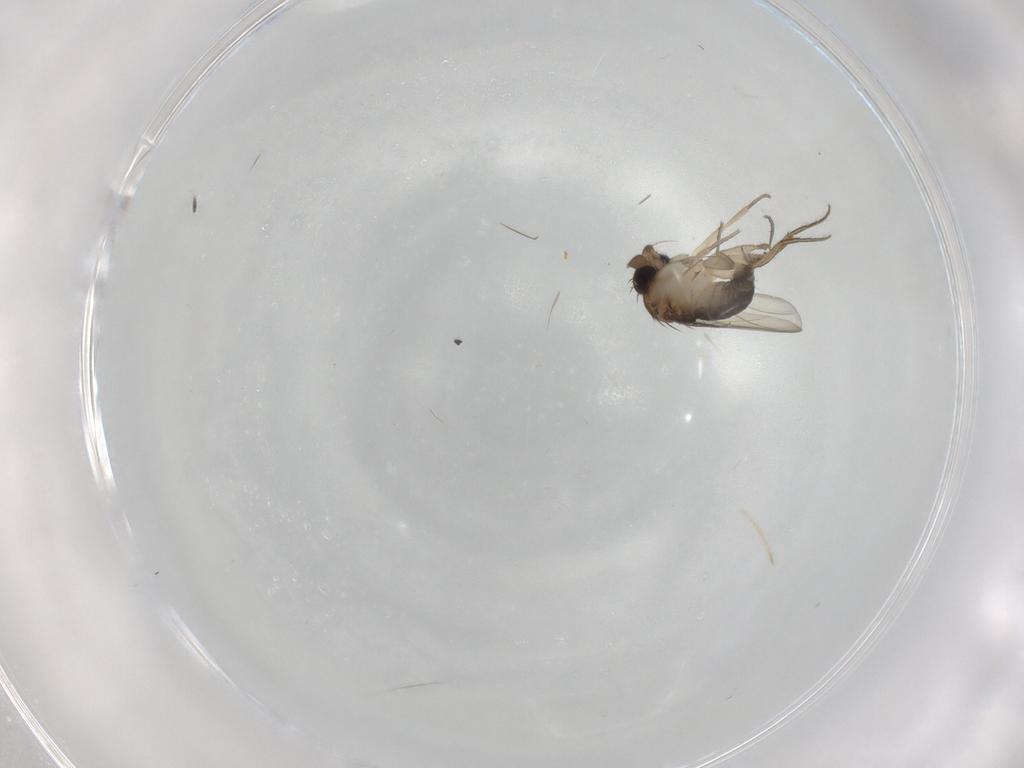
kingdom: Animalia
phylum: Arthropoda
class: Insecta
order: Diptera
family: Phoridae
